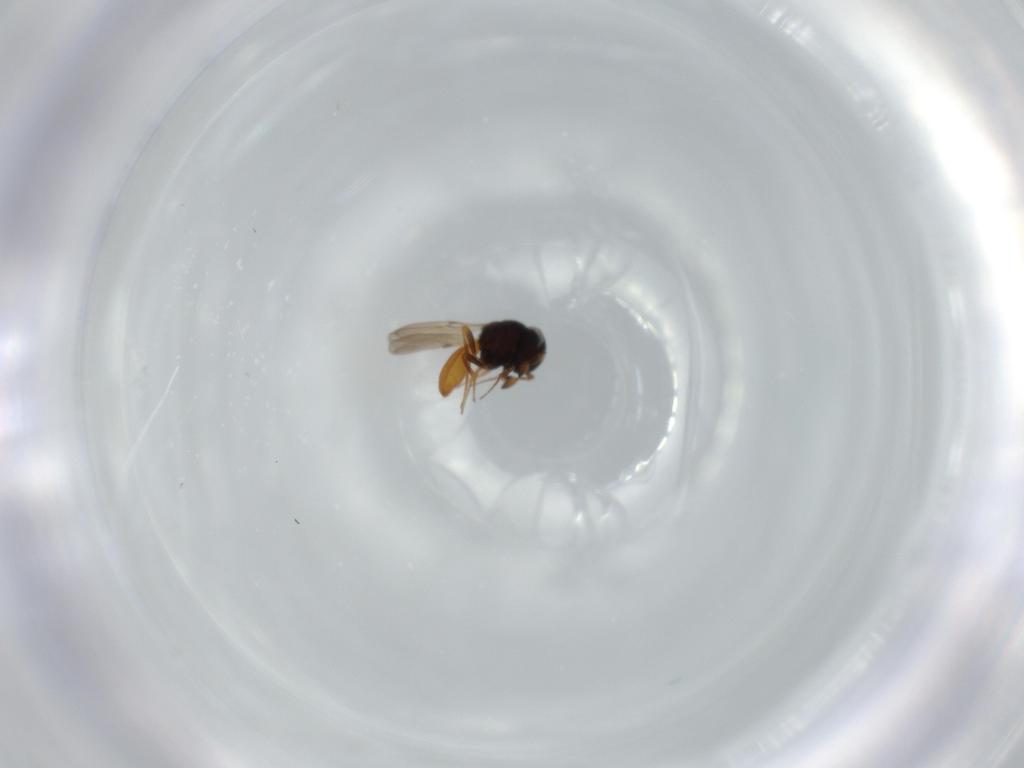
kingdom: Animalia
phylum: Arthropoda
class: Insecta
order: Hymenoptera
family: Scelionidae
